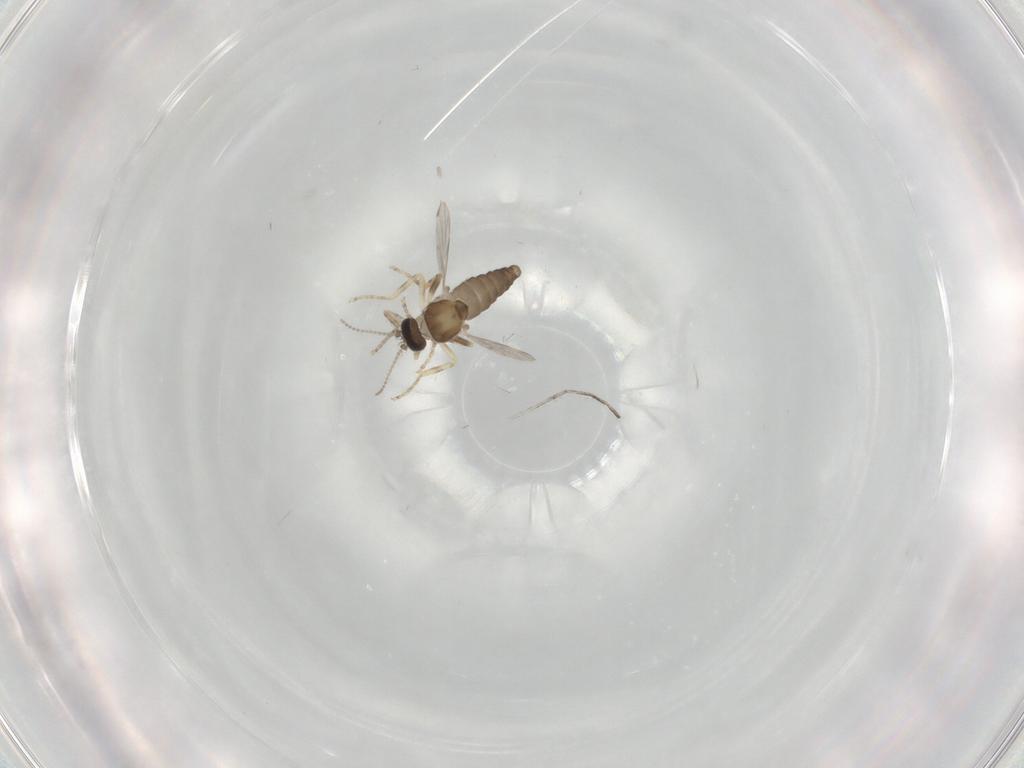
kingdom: Animalia
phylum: Arthropoda
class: Insecta
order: Diptera
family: Ceratopogonidae
